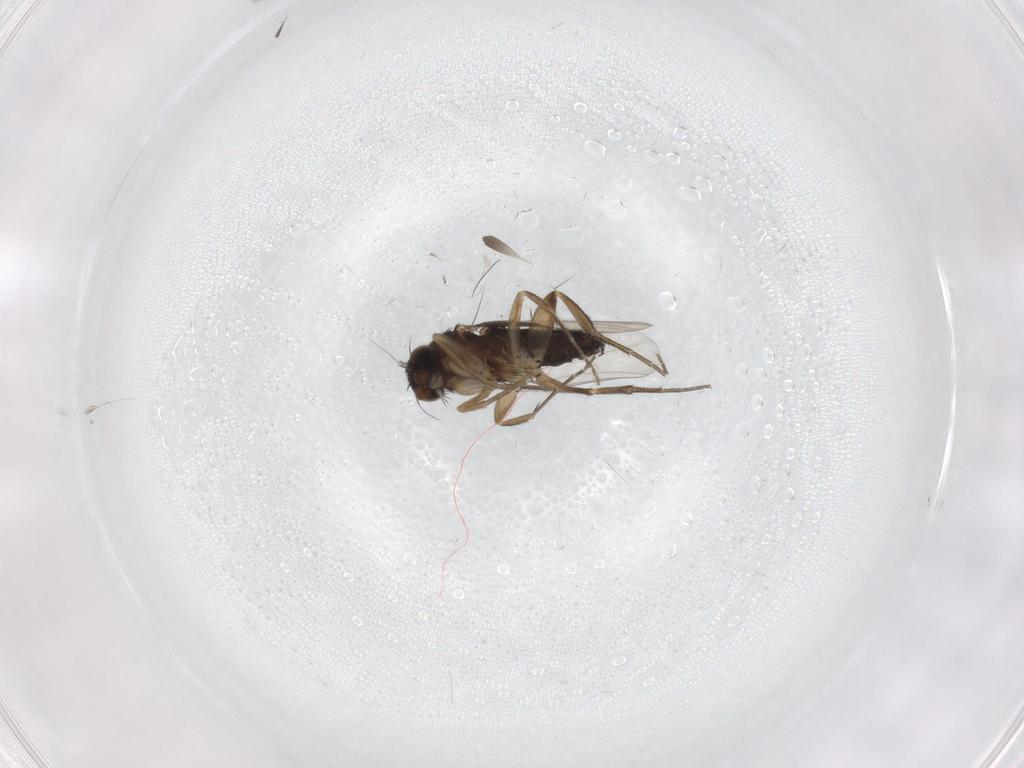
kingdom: Animalia
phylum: Arthropoda
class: Insecta
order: Diptera
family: Phoridae
